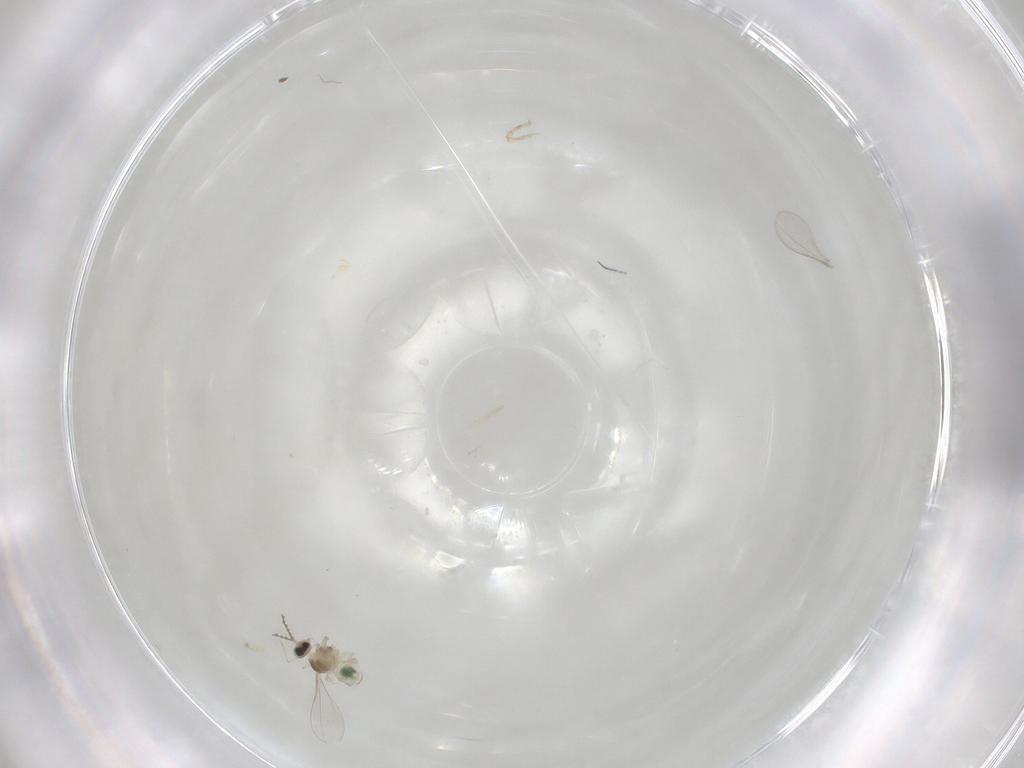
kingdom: Animalia
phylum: Arthropoda
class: Insecta
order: Diptera
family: Cecidomyiidae
